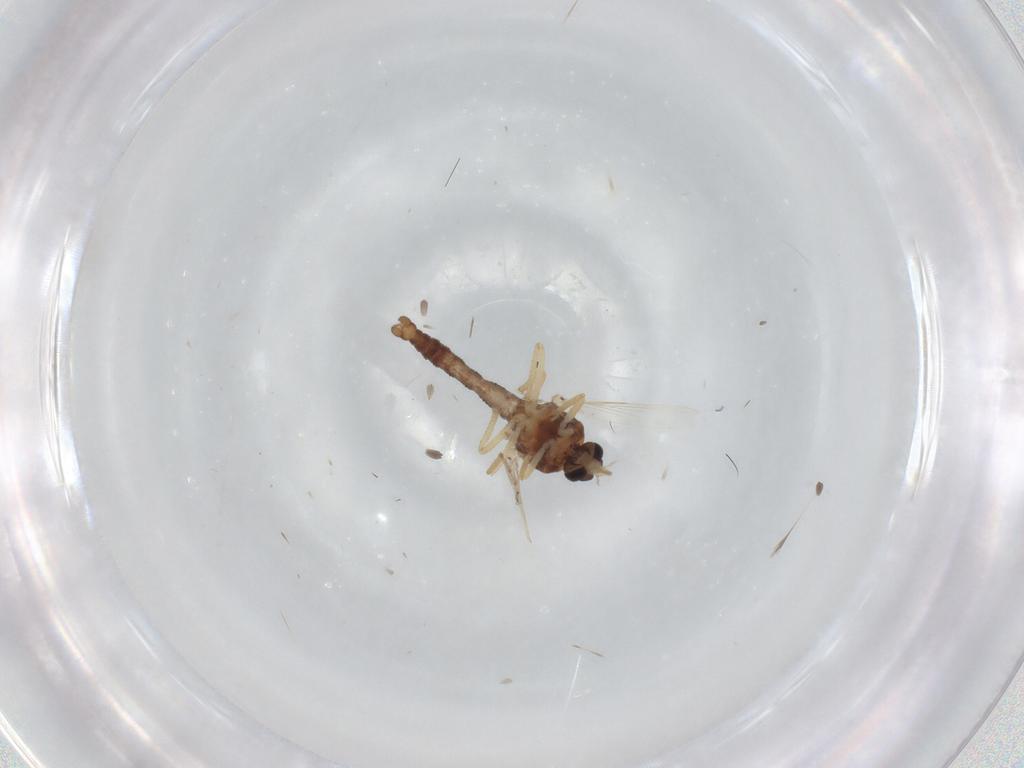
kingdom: Animalia
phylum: Arthropoda
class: Insecta
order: Diptera
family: Ceratopogonidae
